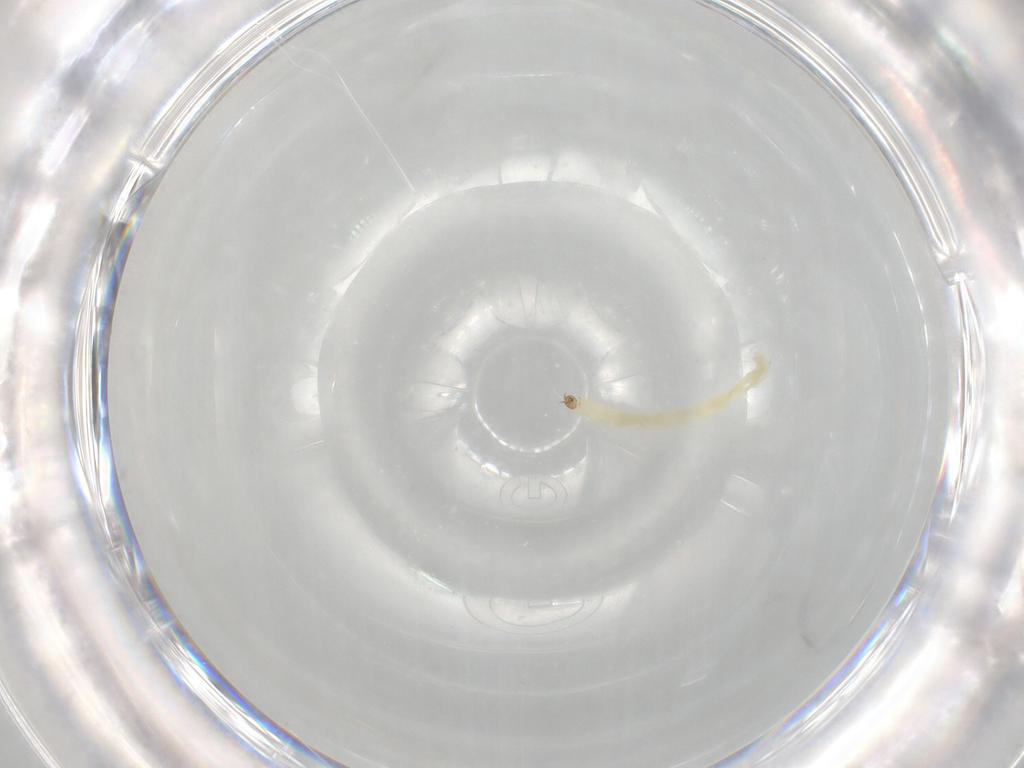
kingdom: Animalia
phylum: Arthropoda
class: Insecta
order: Diptera
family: Chironomidae
